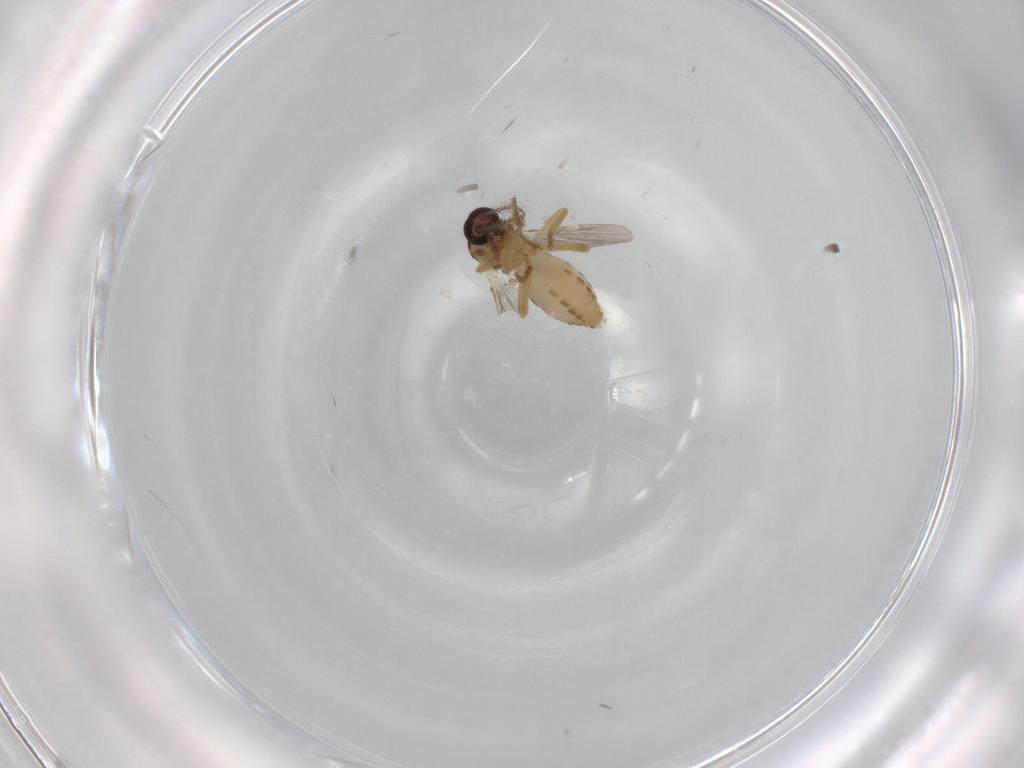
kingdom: Animalia
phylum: Arthropoda
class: Insecta
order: Diptera
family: Ceratopogonidae
